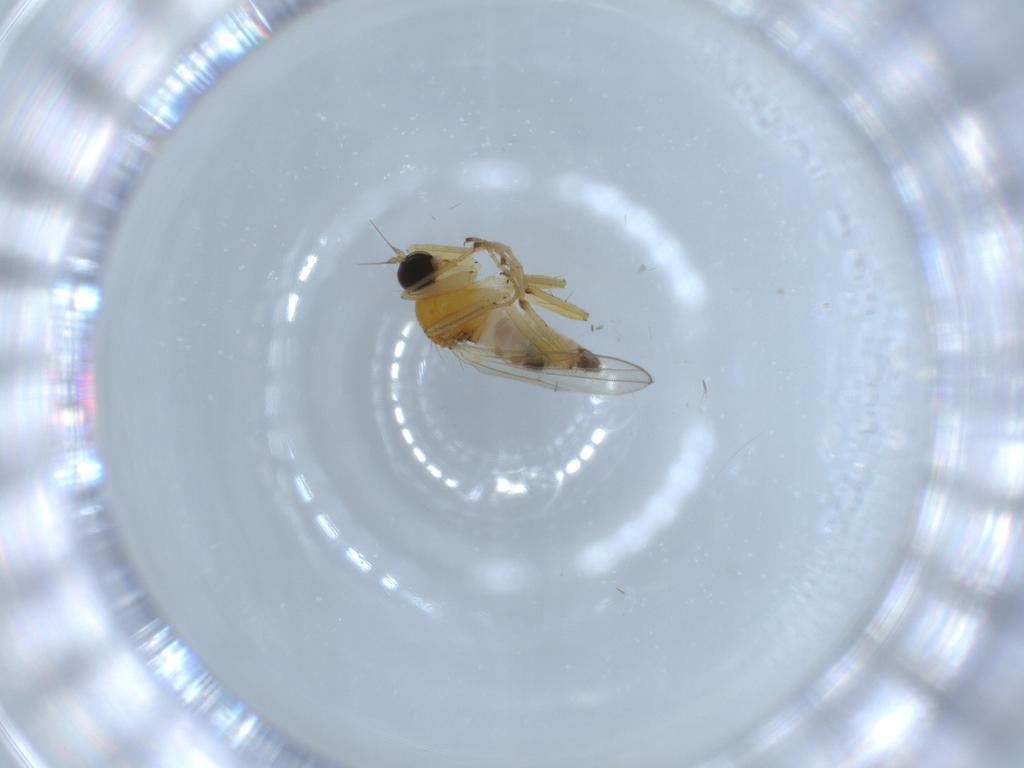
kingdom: Animalia
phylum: Arthropoda
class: Insecta
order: Diptera
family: Hybotidae
